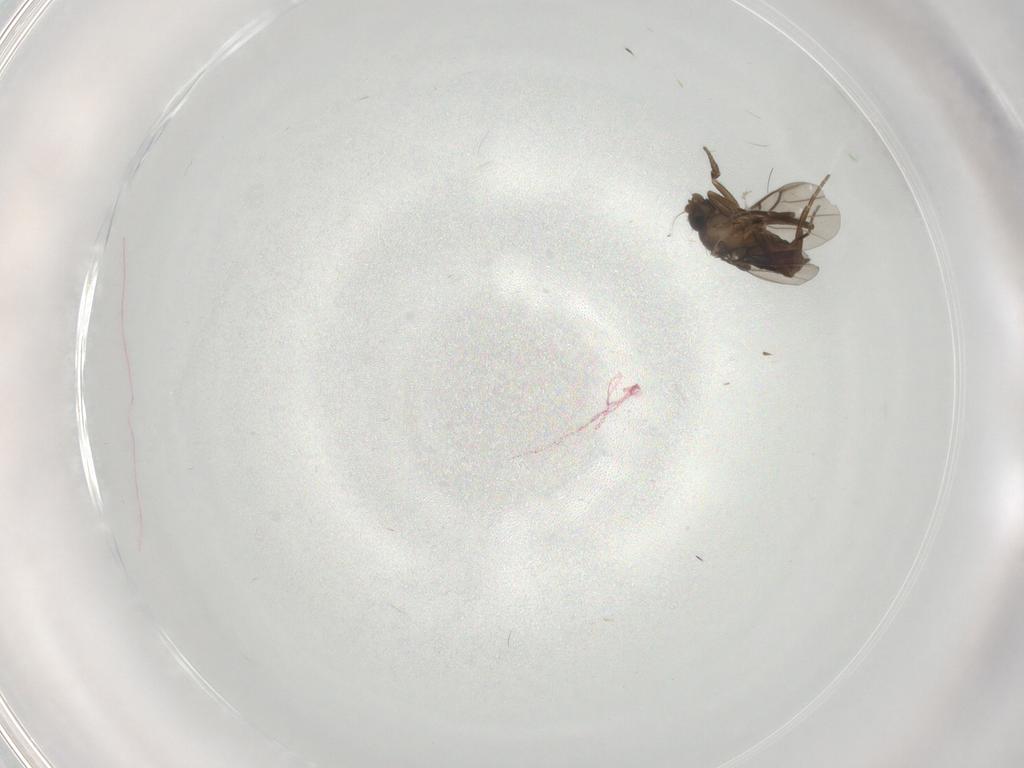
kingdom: Animalia
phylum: Arthropoda
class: Insecta
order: Diptera
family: Phoridae
